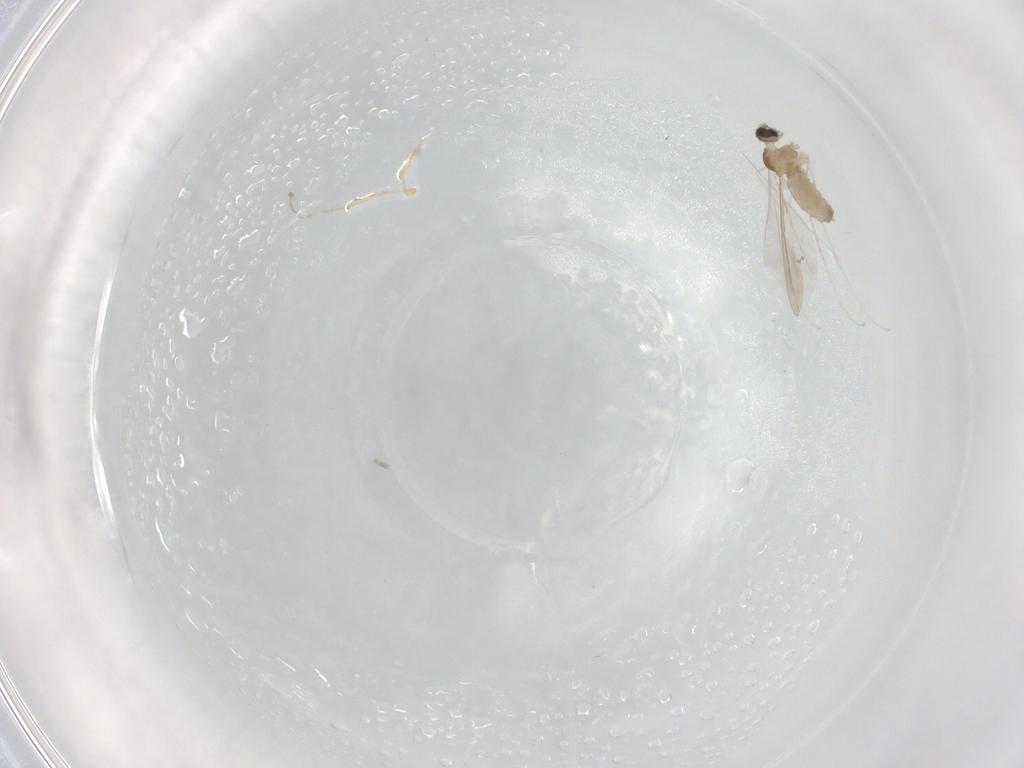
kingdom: Animalia
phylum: Arthropoda
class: Insecta
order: Diptera
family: Cecidomyiidae
